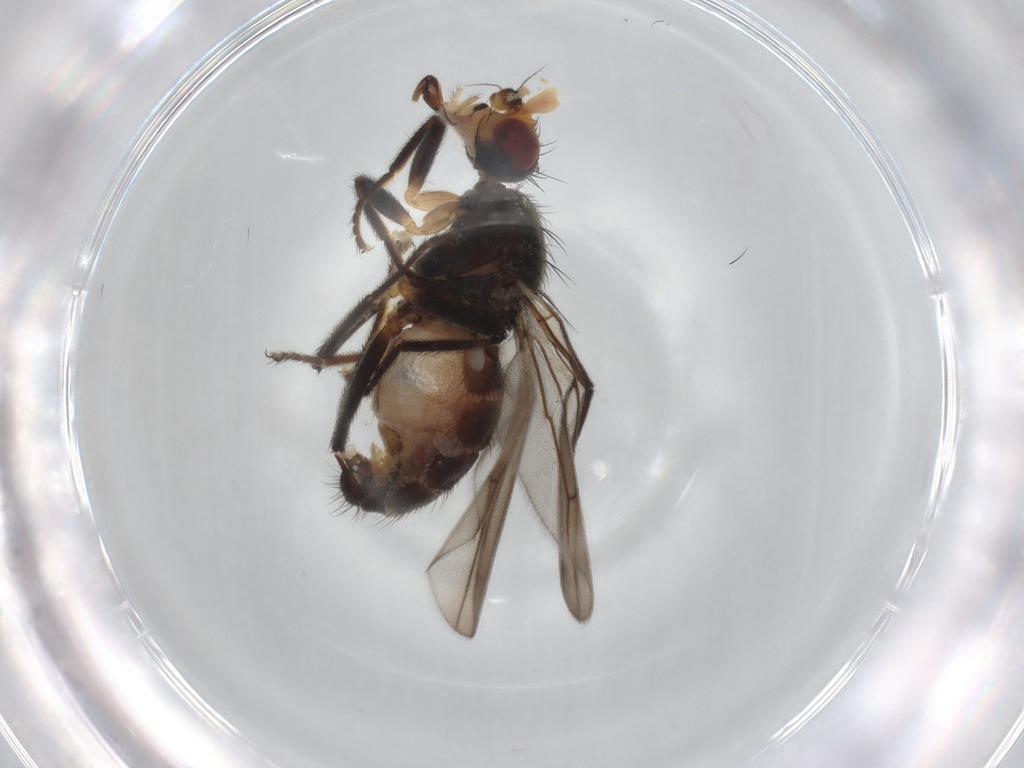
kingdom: Animalia
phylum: Arthropoda
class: Insecta
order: Diptera
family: Chloropidae
